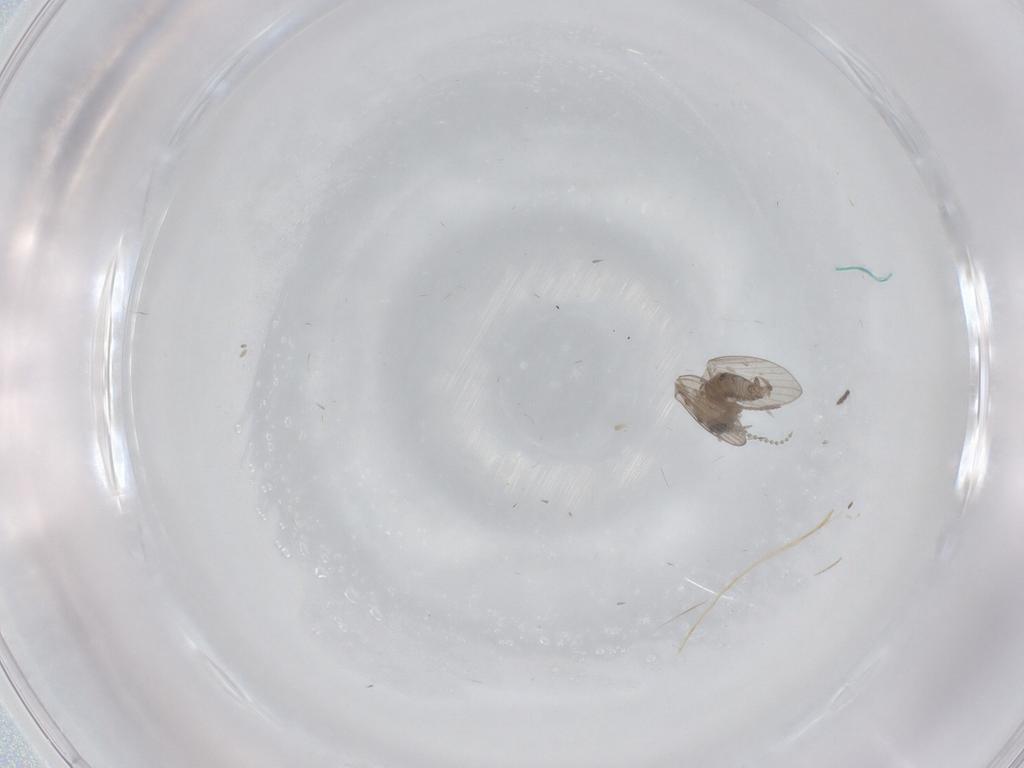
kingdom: Animalia
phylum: Arthropoda
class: Insecta
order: Diptera
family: Psychodidae
